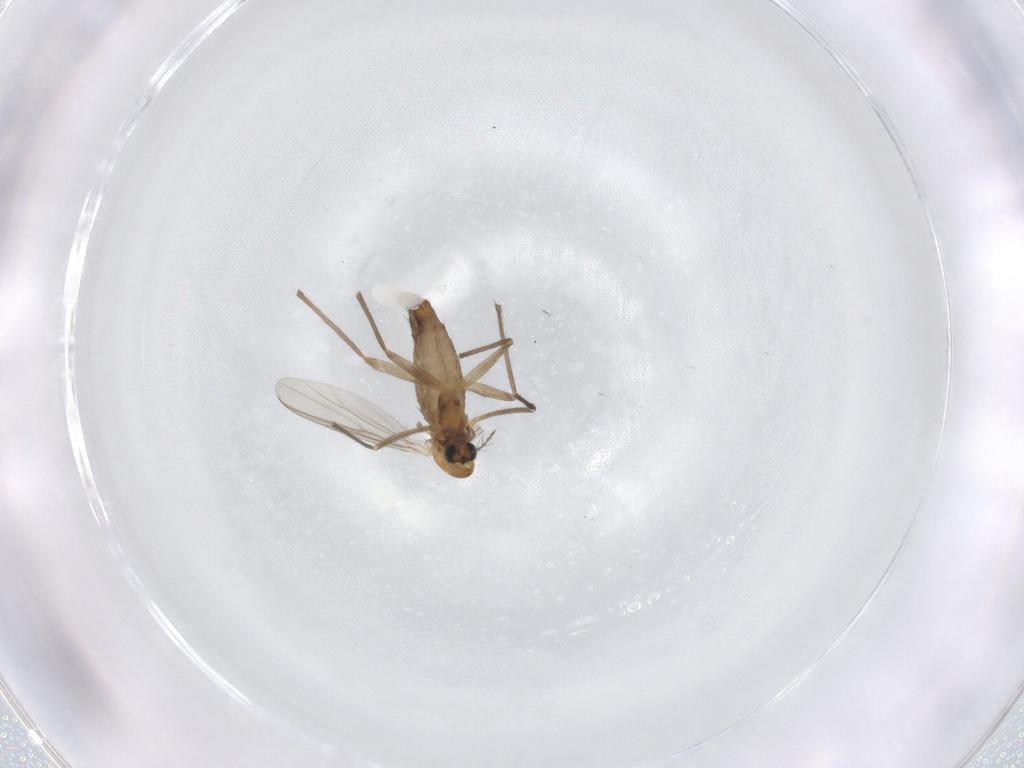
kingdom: Animalia
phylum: Arthropoda
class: Insecta
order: Diptera
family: Chironomidae
